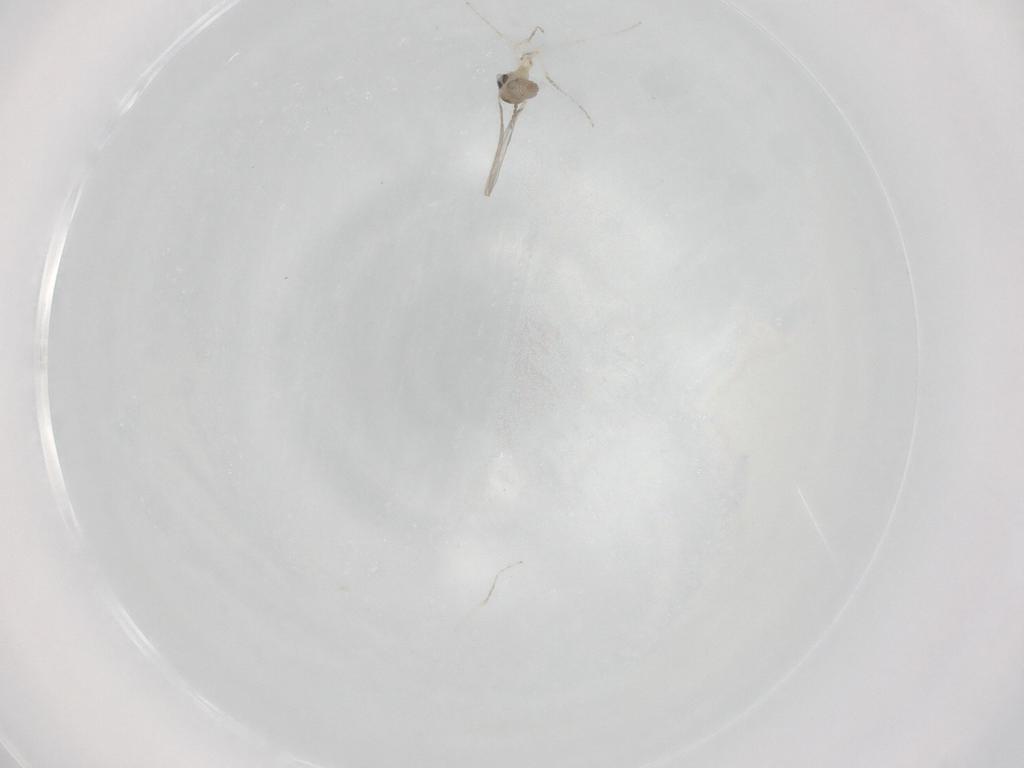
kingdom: Animalia
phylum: Arthropoda
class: Insecta
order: Diptera
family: Cecidomyiidae
